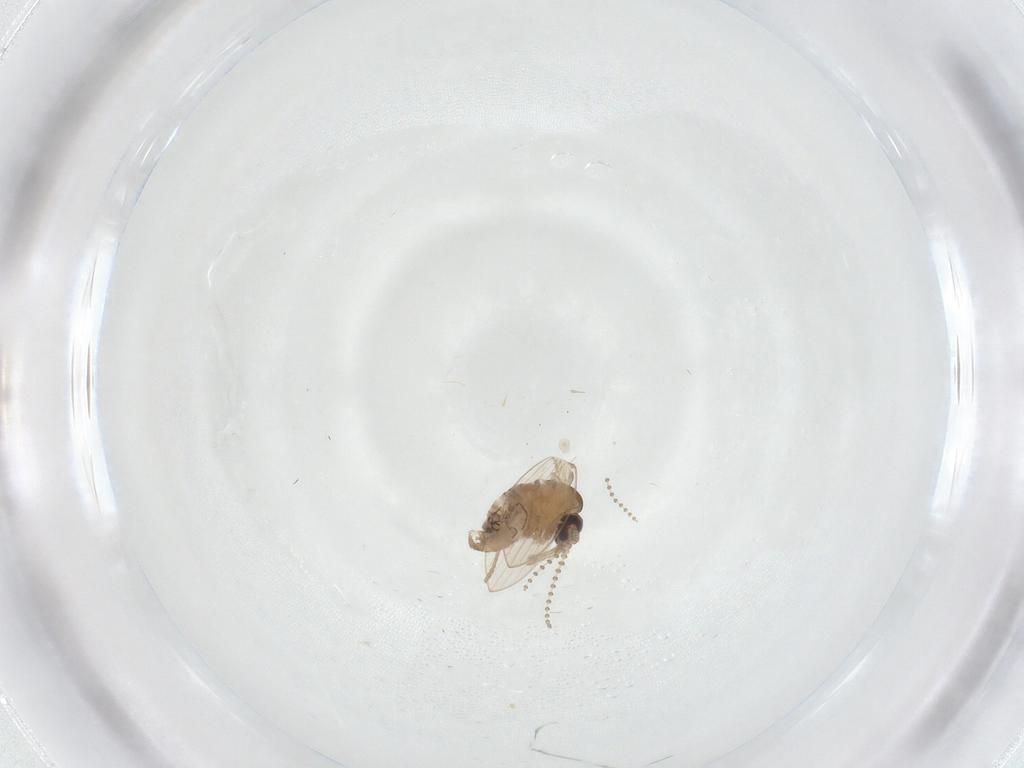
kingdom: Animalia
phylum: Arthropoda
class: Insecta
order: Diptera
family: Psychodidae
